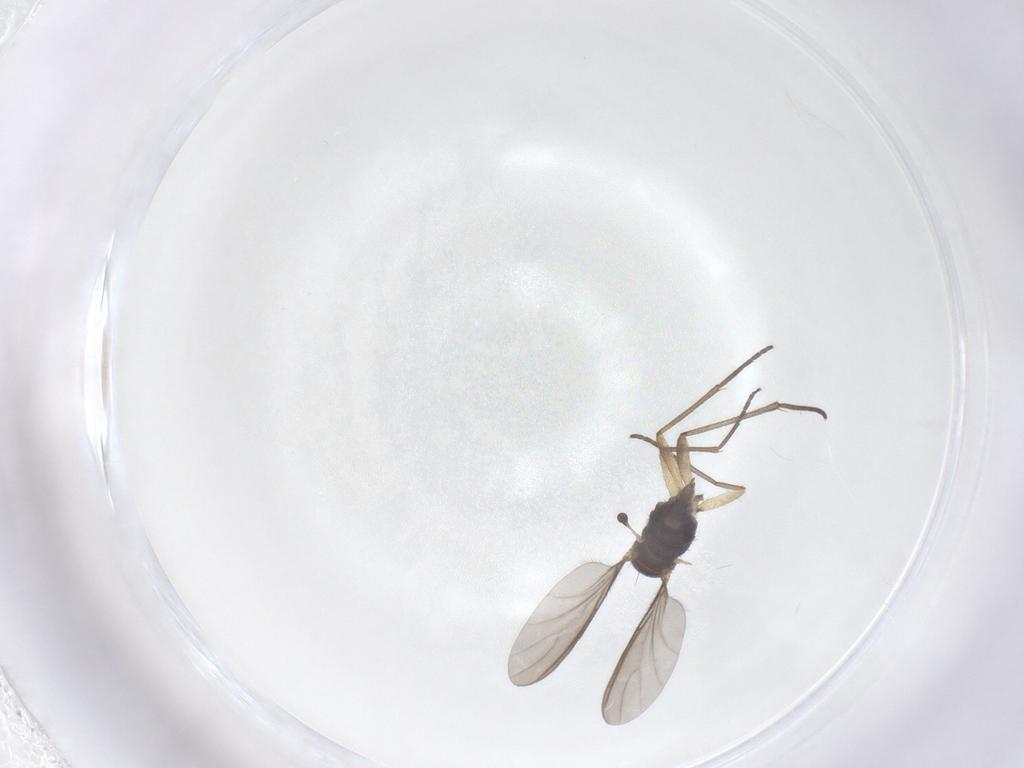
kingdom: Animalia
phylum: Arthropoda
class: Insecta
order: Diptera
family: Sciaridae
